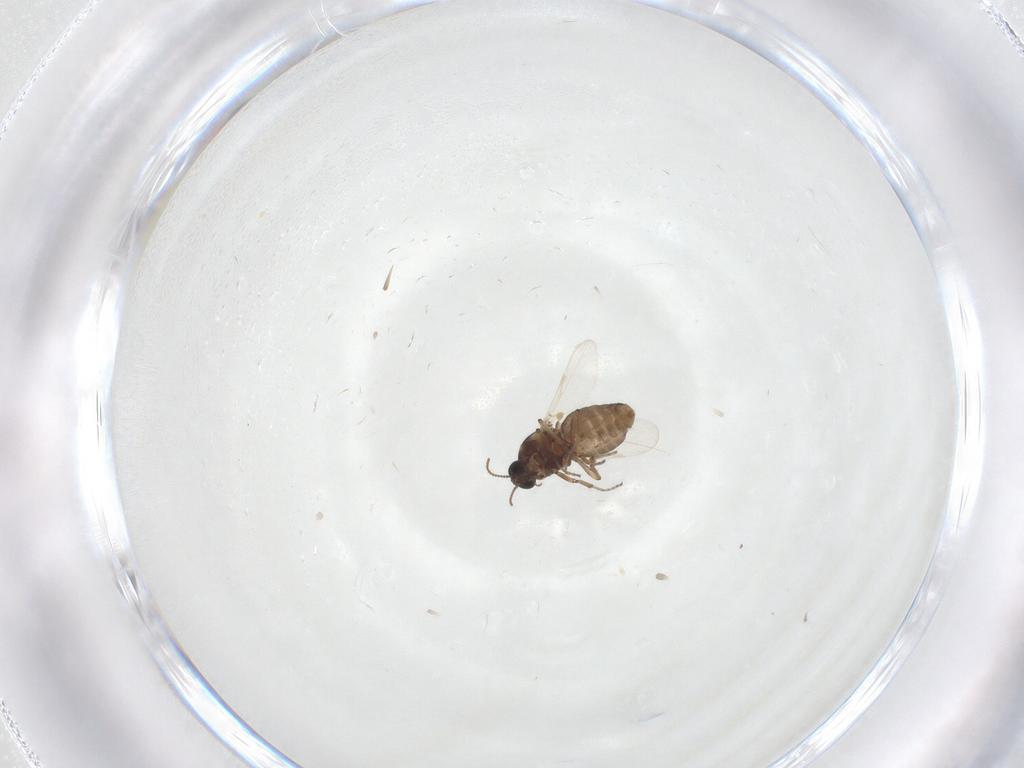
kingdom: Animalia
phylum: Arthropoda
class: Insecta
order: Diptera
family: Ceratopogonidae
